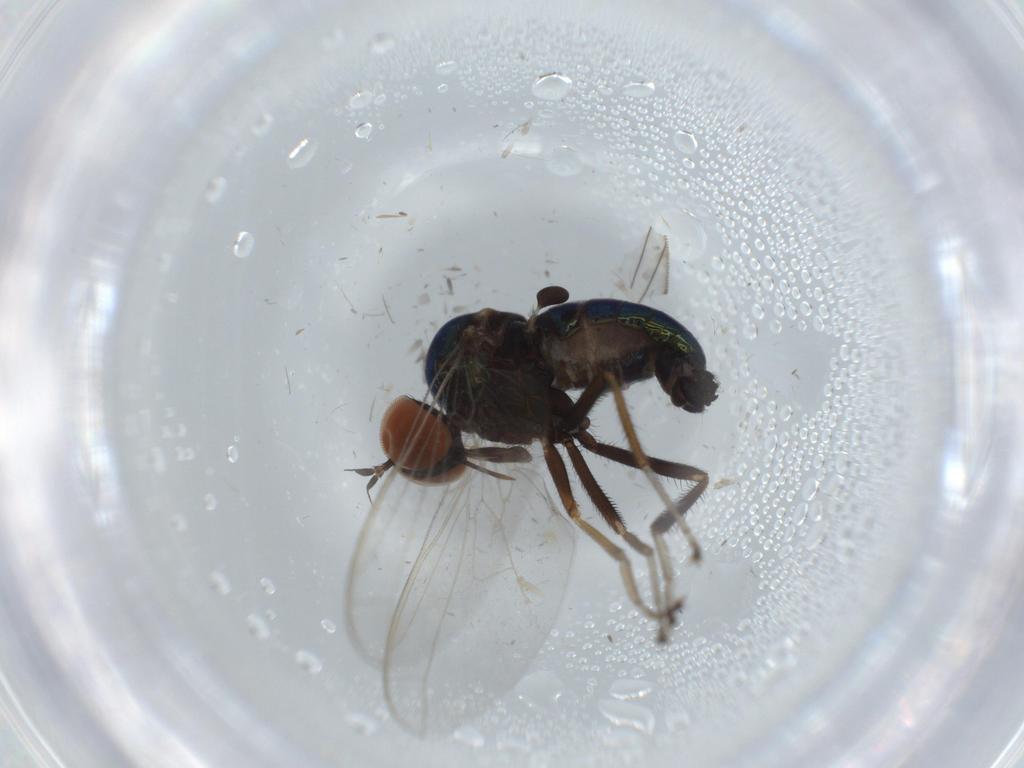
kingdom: Animalia
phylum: Arthropoda
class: Insecta
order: Diptera
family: Phoridae
